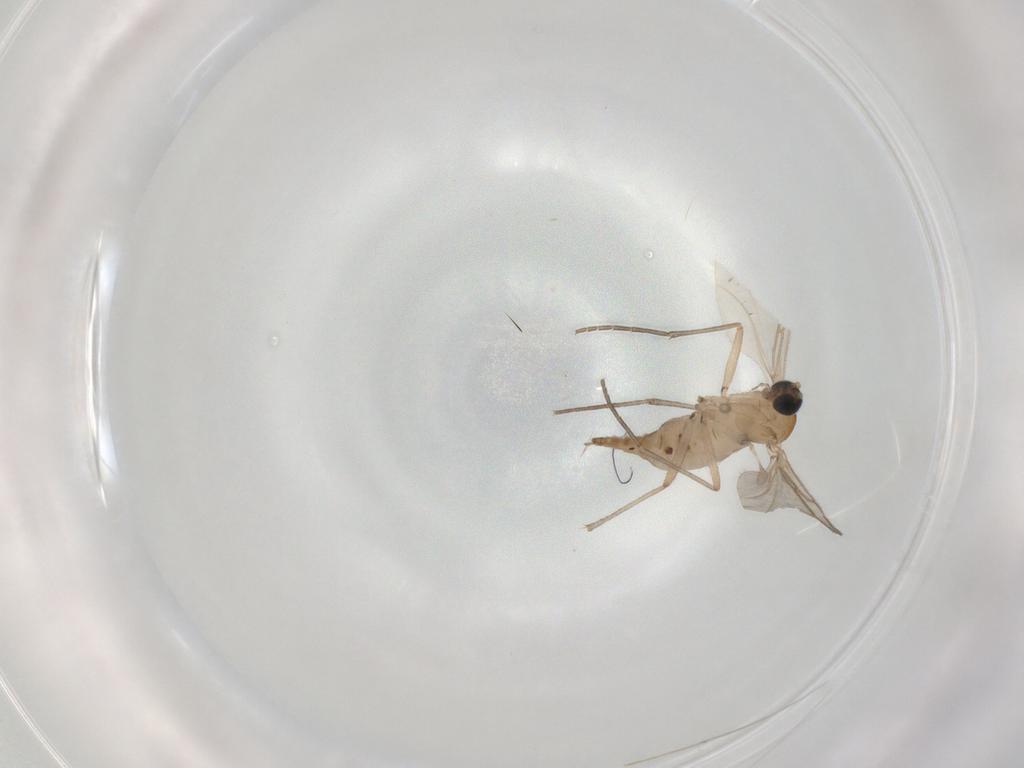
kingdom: Animalia
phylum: Arthropoda
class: Insecta
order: Diptera
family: Sciaridae
